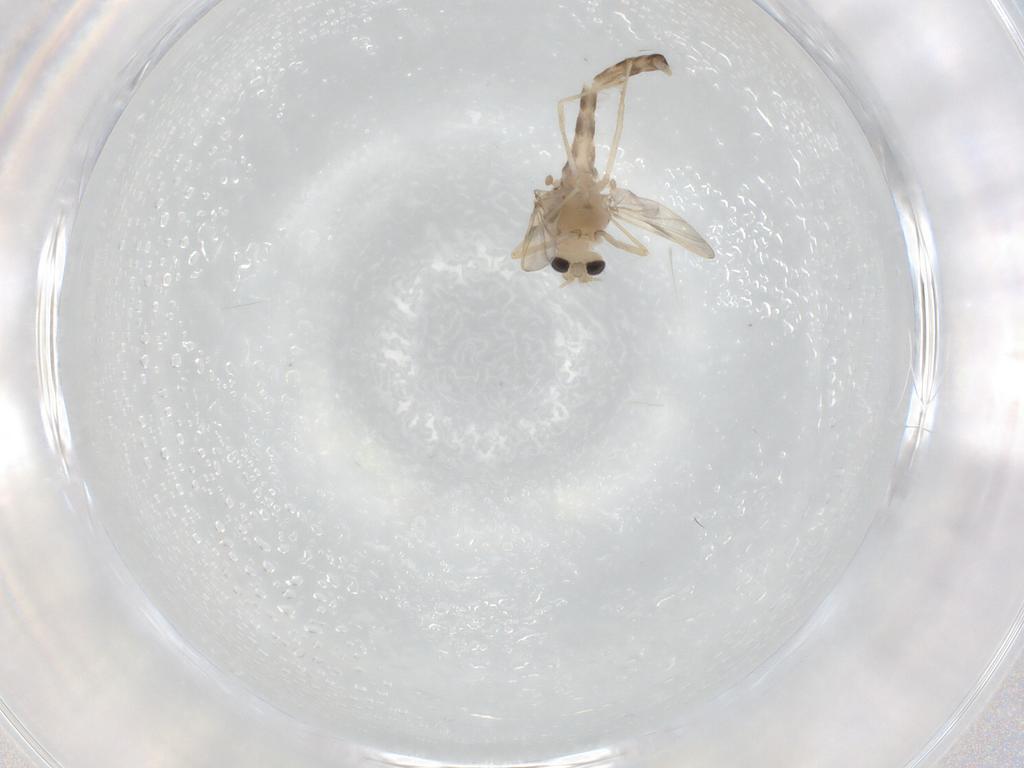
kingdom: Animalia
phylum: Arthropoda
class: Insecta
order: Diptera
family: Chironomidae
